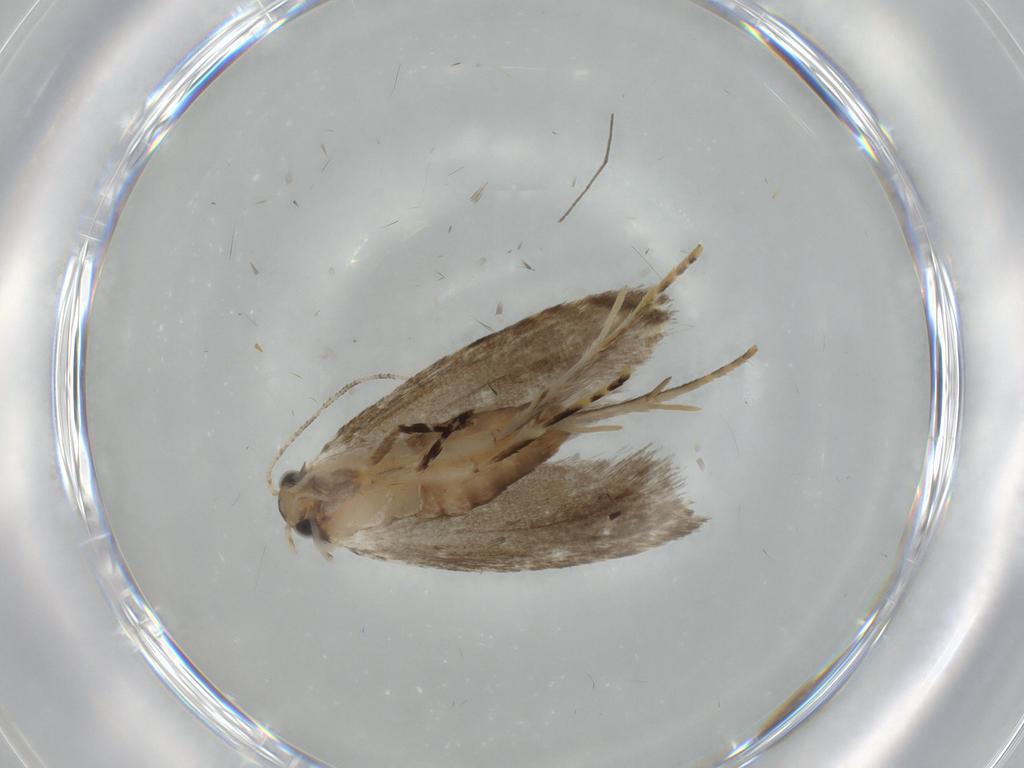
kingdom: Animalia
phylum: Arthropoda
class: Insecta
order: Lepidoptera
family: Tineidae
